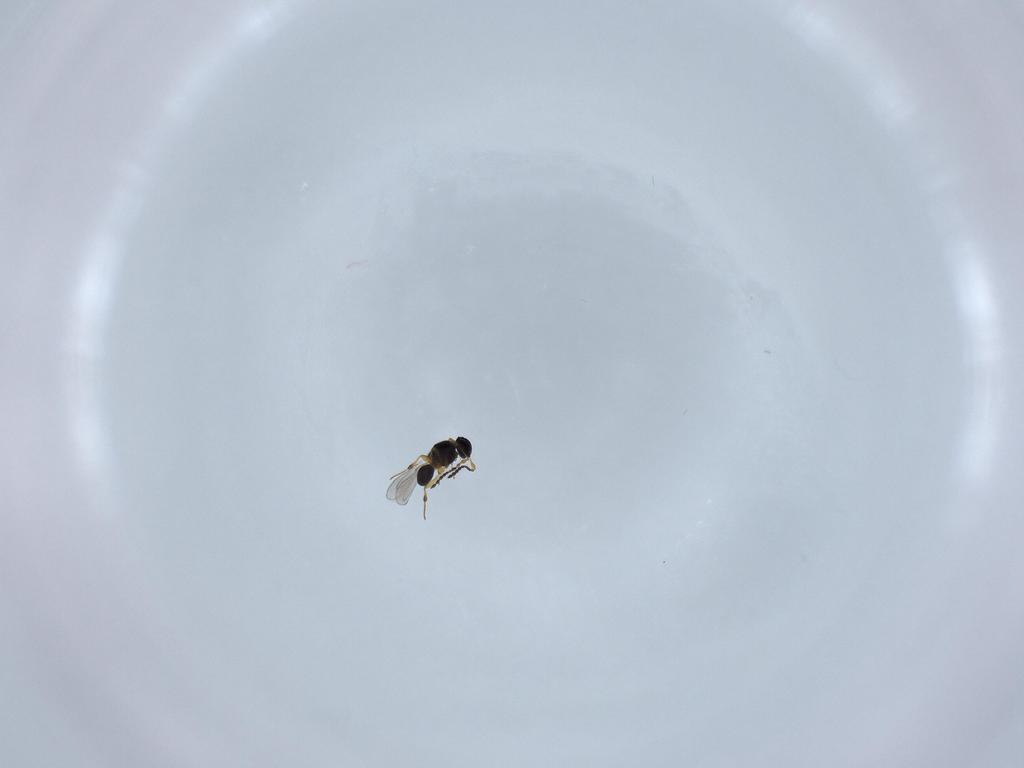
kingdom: Animalia
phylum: Arthropoda
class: Insecta
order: Hymenoptera
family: Platygastridae
